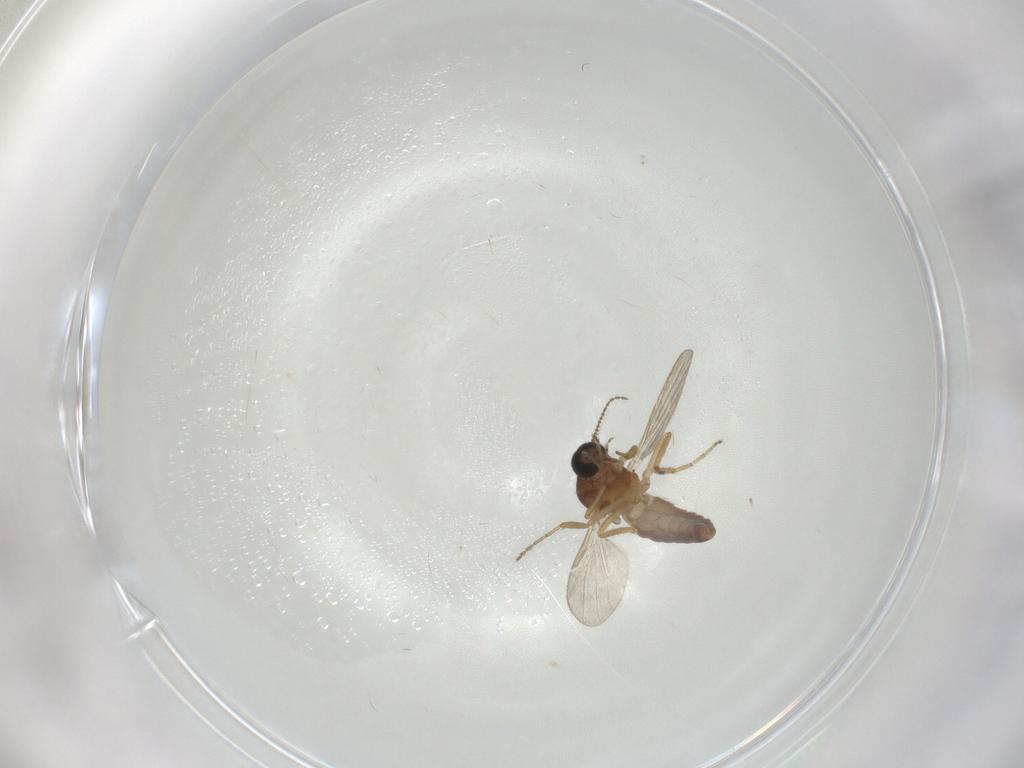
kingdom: Animalia
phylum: Arthropoda
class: Insecta
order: Diptera
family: Ceratopogonidae
